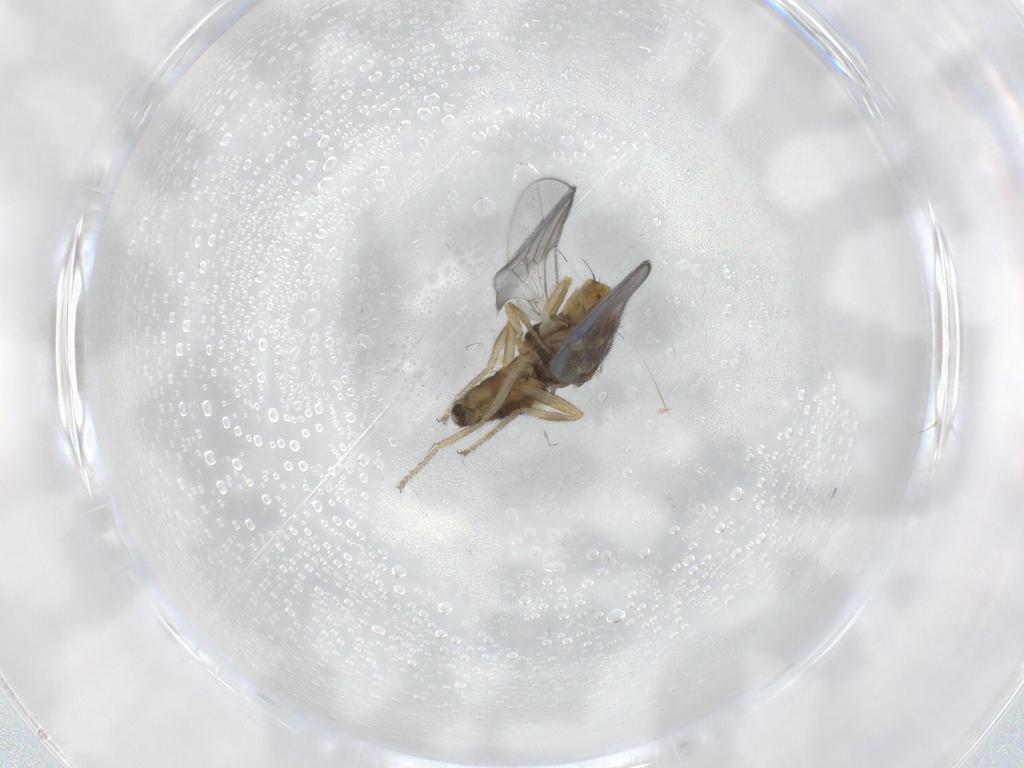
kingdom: Animalia
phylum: Arthropoda
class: Insecta
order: Diptera
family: Chloropidae
